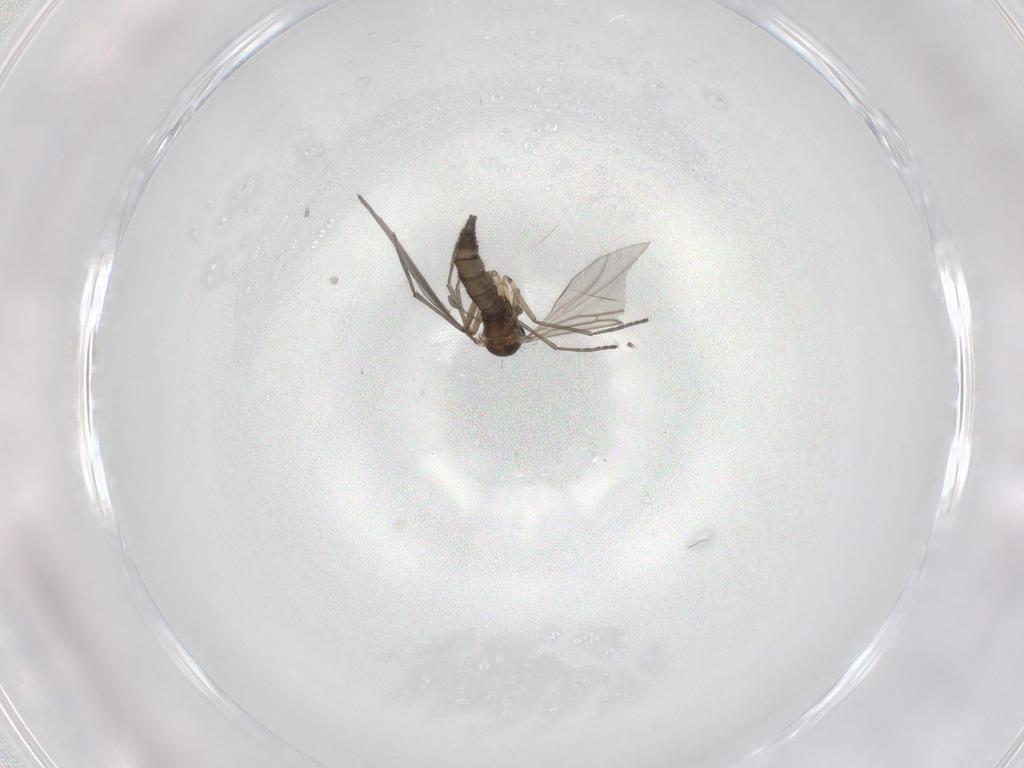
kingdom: Animalia
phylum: Arthropoda
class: Insecta
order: Diptera
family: Sciaridae
